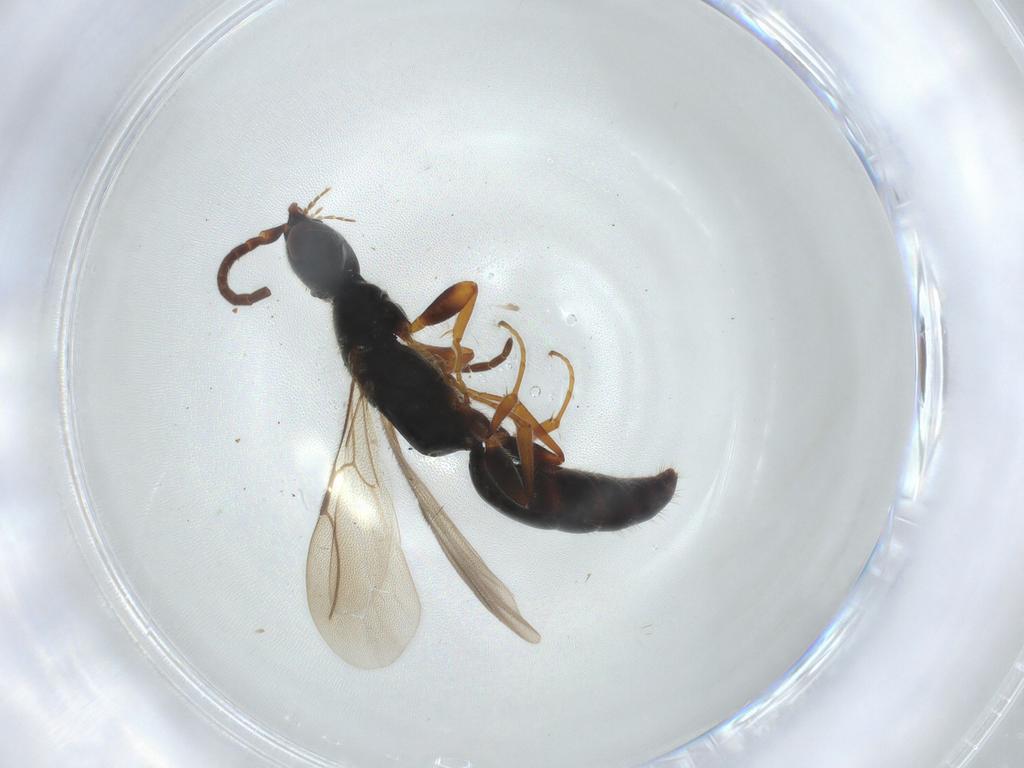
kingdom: Animalia
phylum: Arthropoda
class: Insecta
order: Hymenoptera
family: Bethylidae
